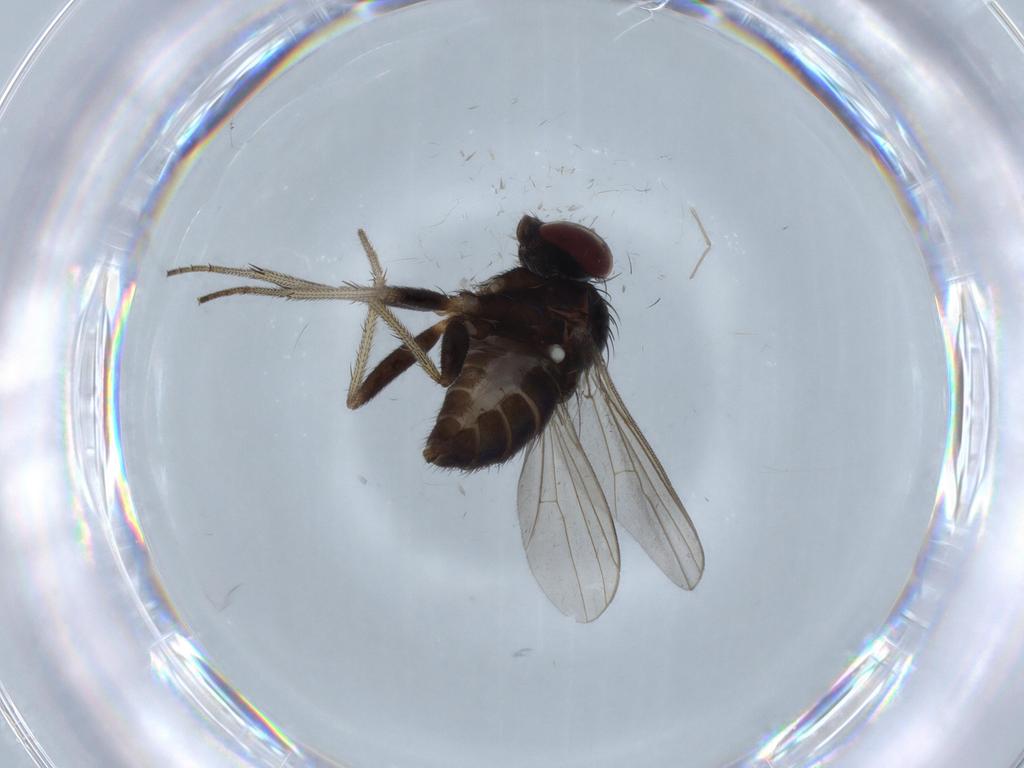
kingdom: Animalia
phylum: Arthropoda
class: Insecta
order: Diptera
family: Dolichopodidae
